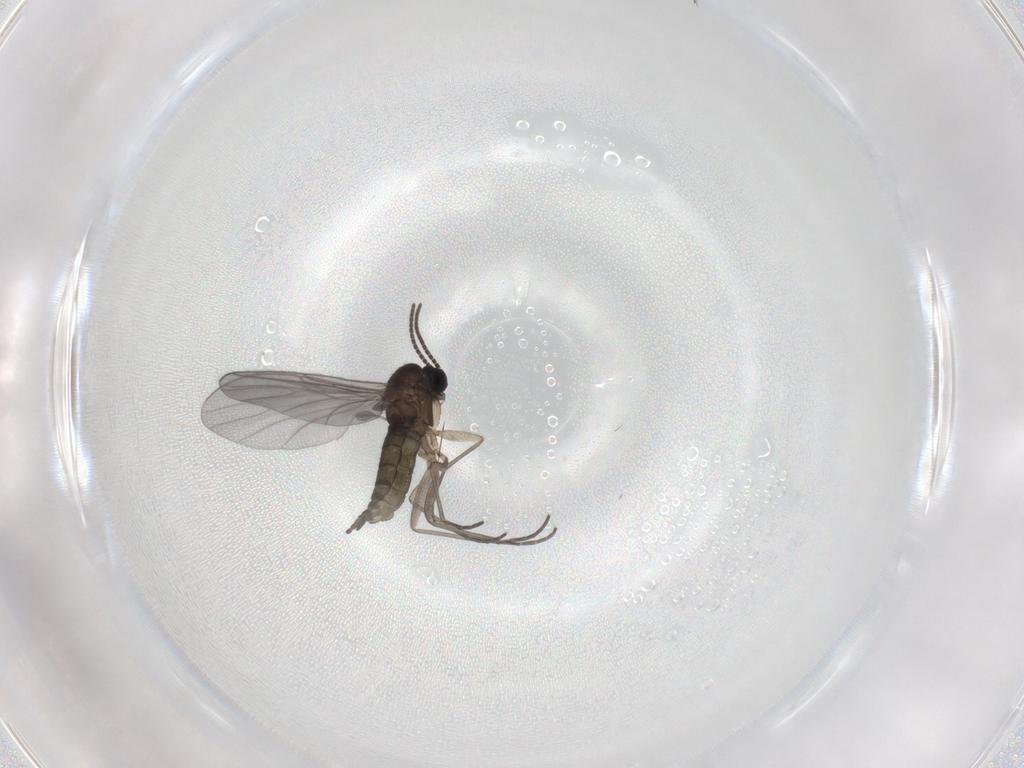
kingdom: Animalia
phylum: Arthropoda
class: Insecta
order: Diptera
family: Sciaridae
